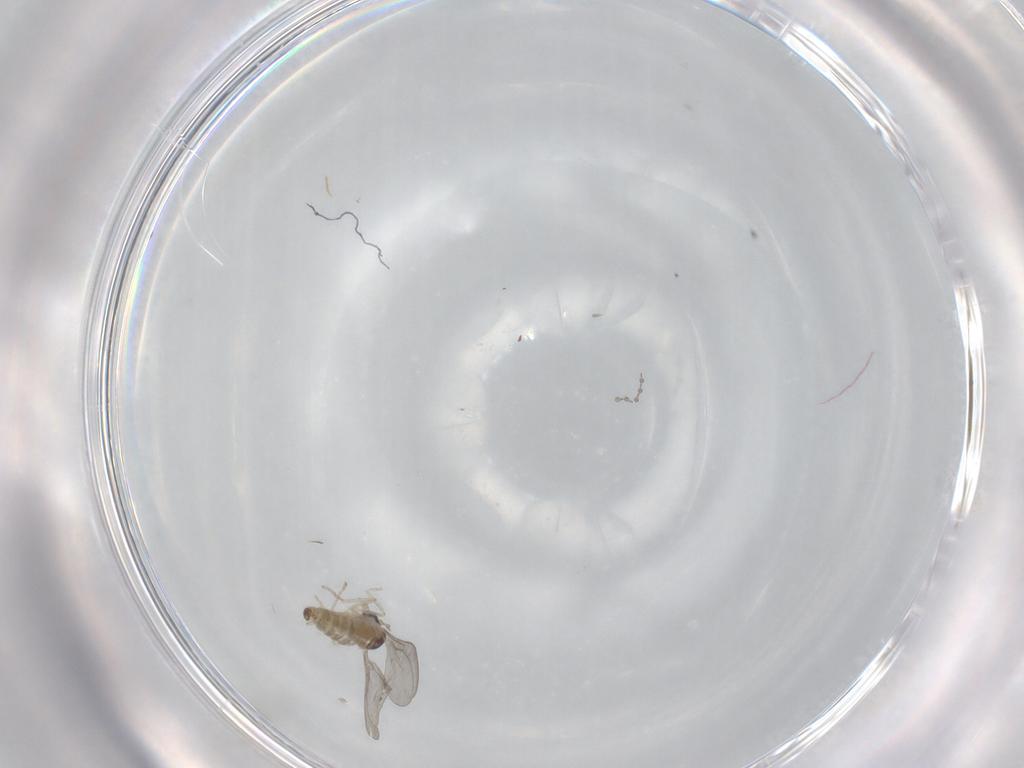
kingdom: Animalia
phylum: Arthropoda
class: Insecta
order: Diptera
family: Cecidomyiidae
